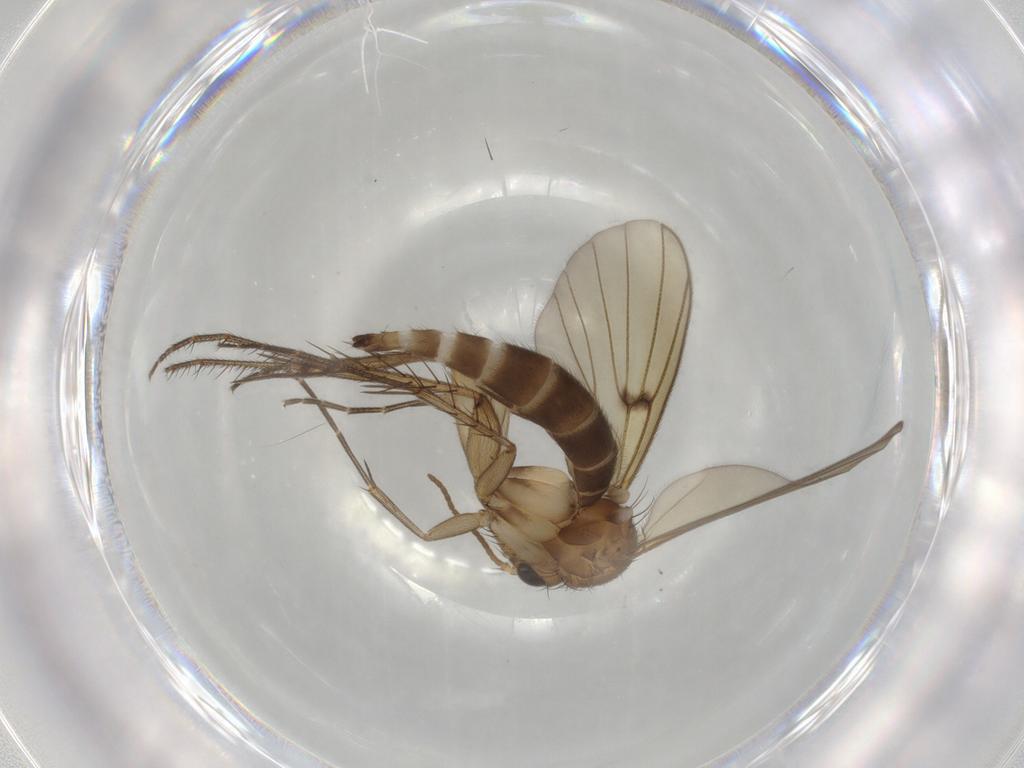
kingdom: Animalia
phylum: Arthropoda
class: Insecta
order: Diptera
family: Mycetophilidae
